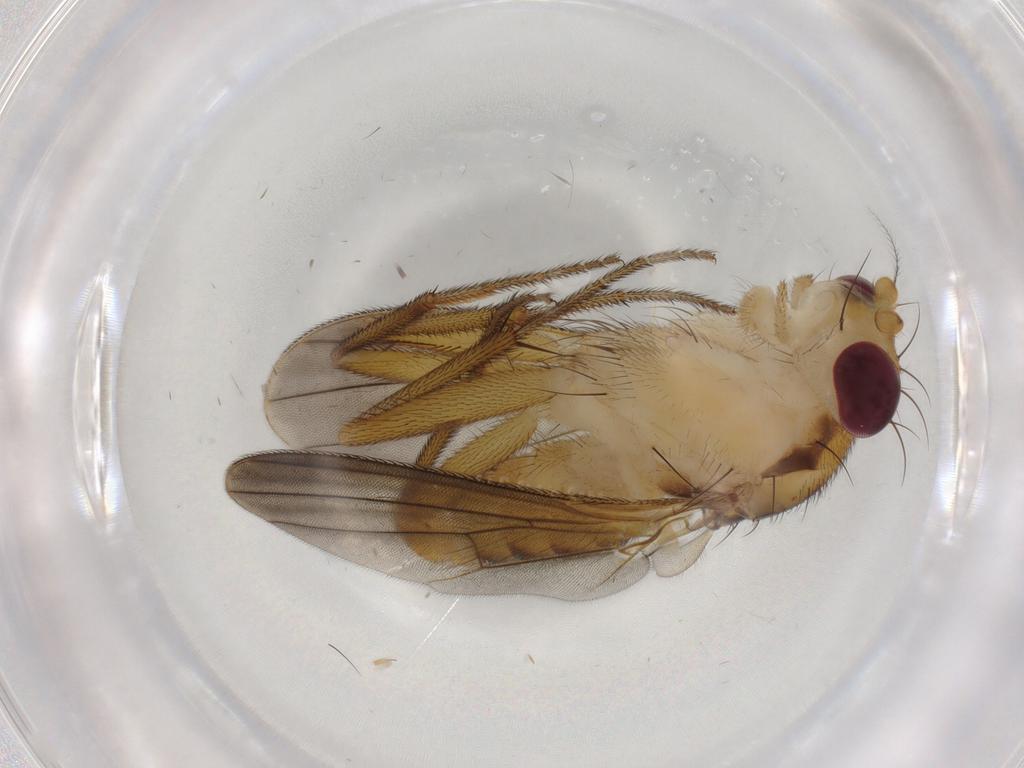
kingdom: Animalia
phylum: Arthropoda
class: Insecta
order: Diptera
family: Clusiidae
